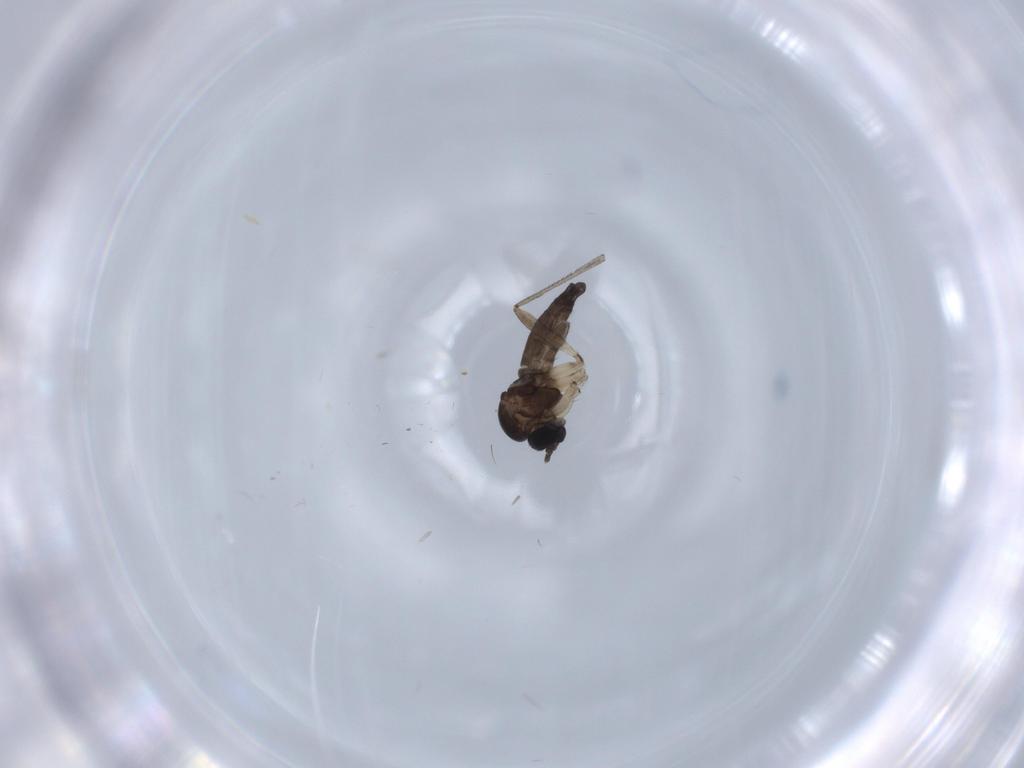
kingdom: Animalia
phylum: Arthropoda
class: Insecta
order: Diptera
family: Sciaridae
